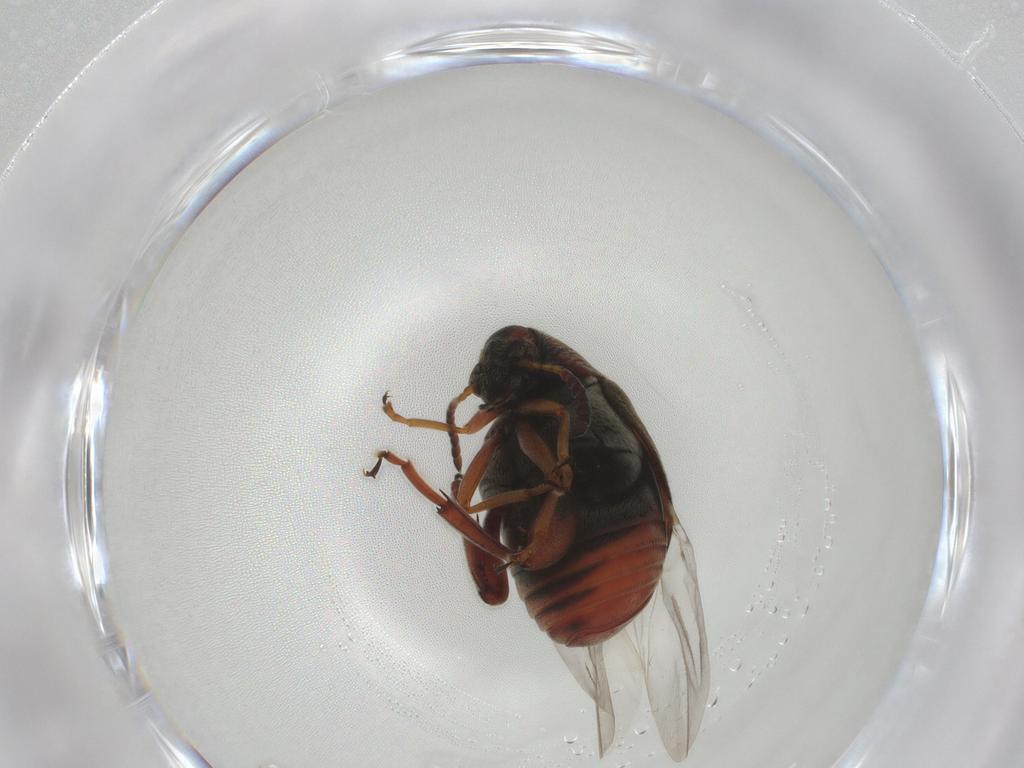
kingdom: Animalia
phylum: Arthropoda
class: Insecta
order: Coleoptera
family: Chrysomelidae
